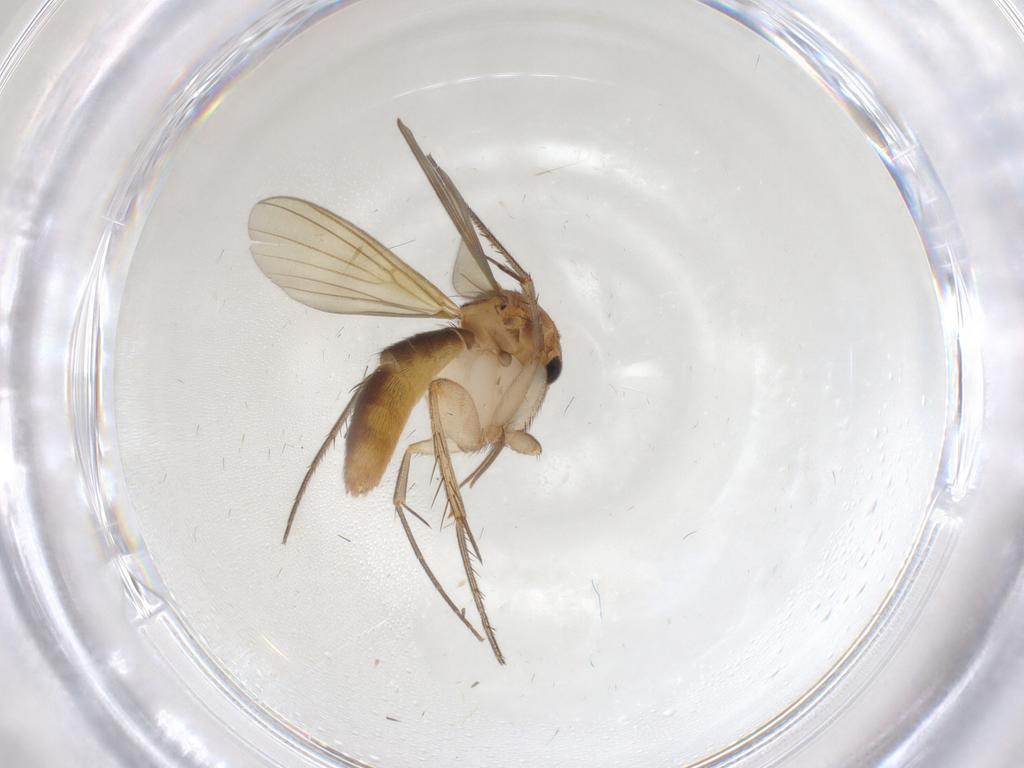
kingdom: Animalia
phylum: Arthropoda
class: Insecta
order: Diptera
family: Mycetophilidae
